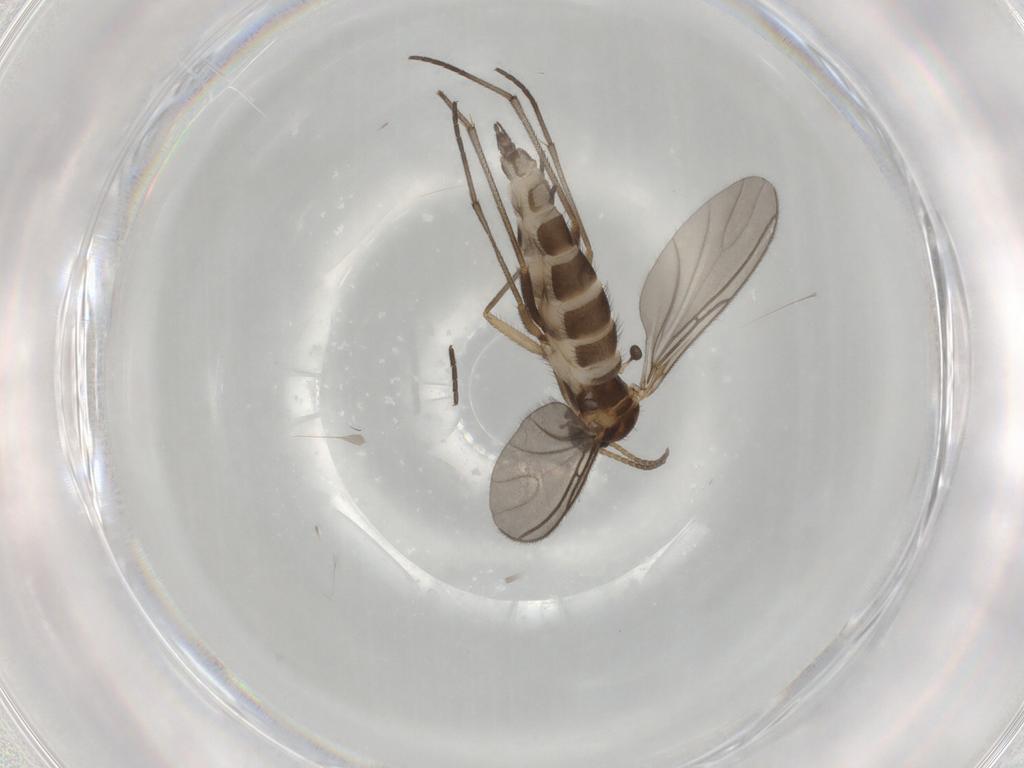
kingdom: Animalia
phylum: Arthropoda
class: Insecta
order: Diptera
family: Sciaridae
